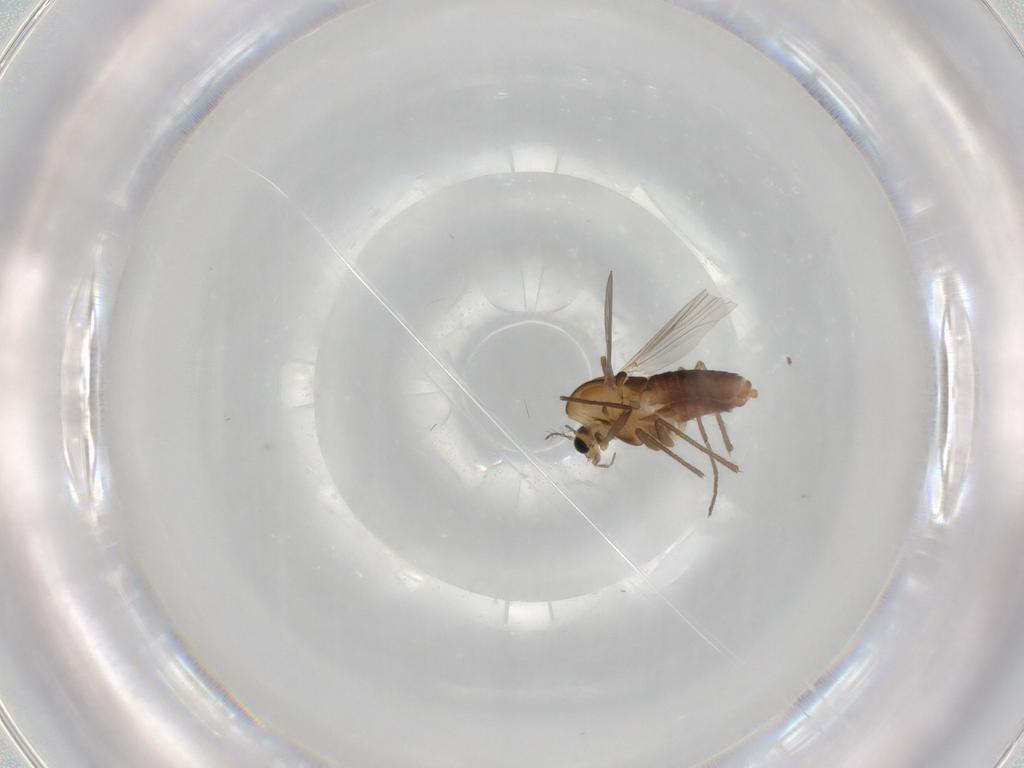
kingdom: Animalia
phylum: Arthropoda
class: Insecta
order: Diptera
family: Chironomidae
